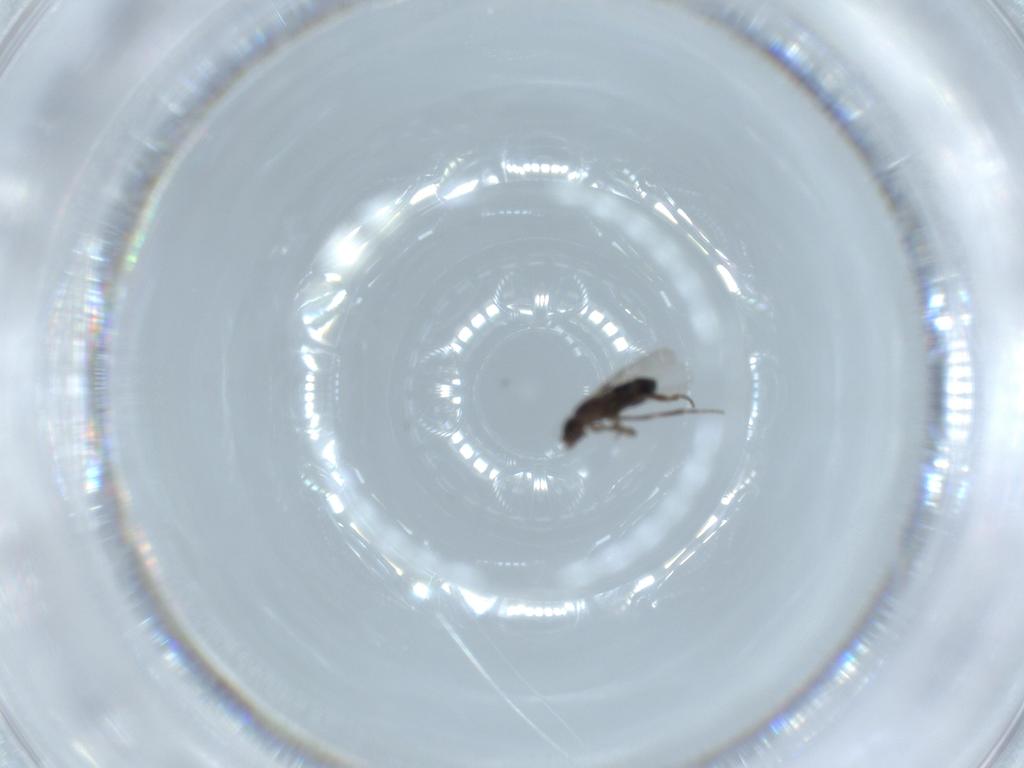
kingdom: Animalia
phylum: Arthropoda
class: Insecta
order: Diptera
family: Phoridae
